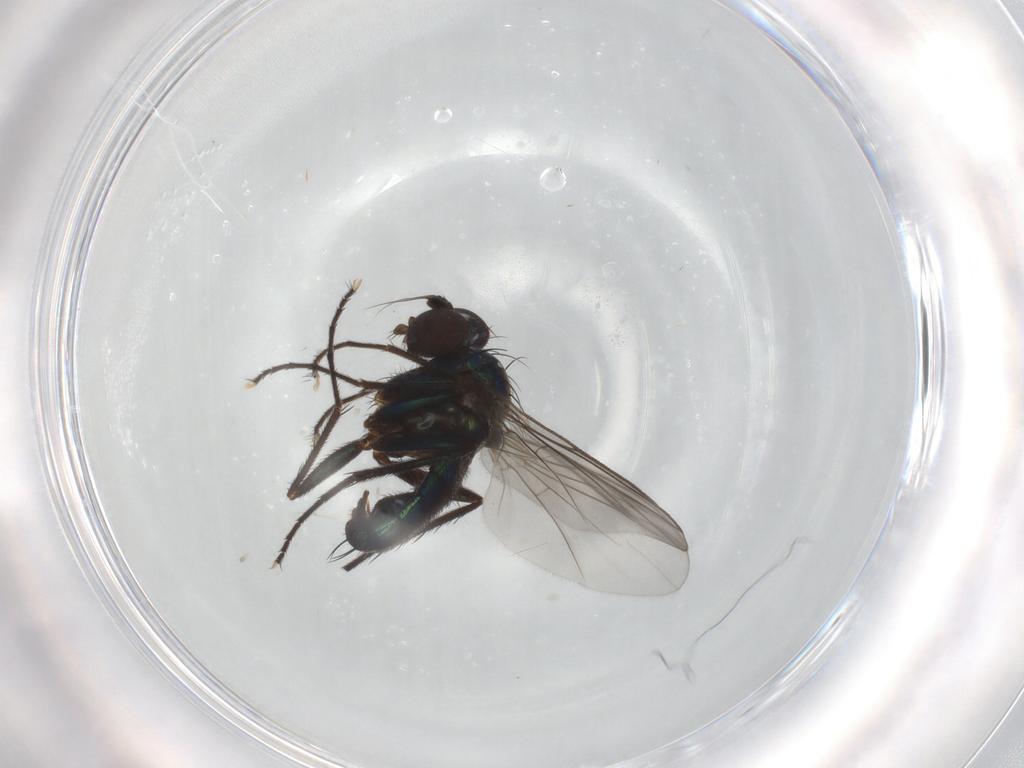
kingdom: Animalia
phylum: Arthropoda
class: Insecta
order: Diptera
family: Dolichopodidae
